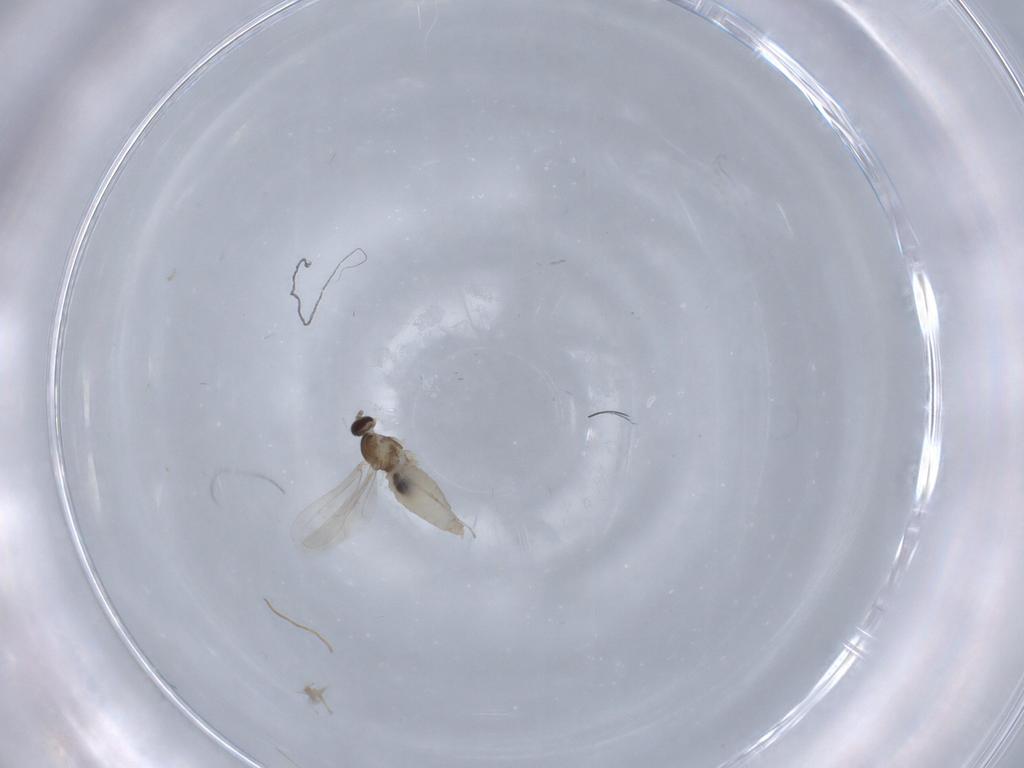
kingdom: Animalia
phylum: Arthropoda
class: Insecta
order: Diptera
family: Cecidomyiidae
